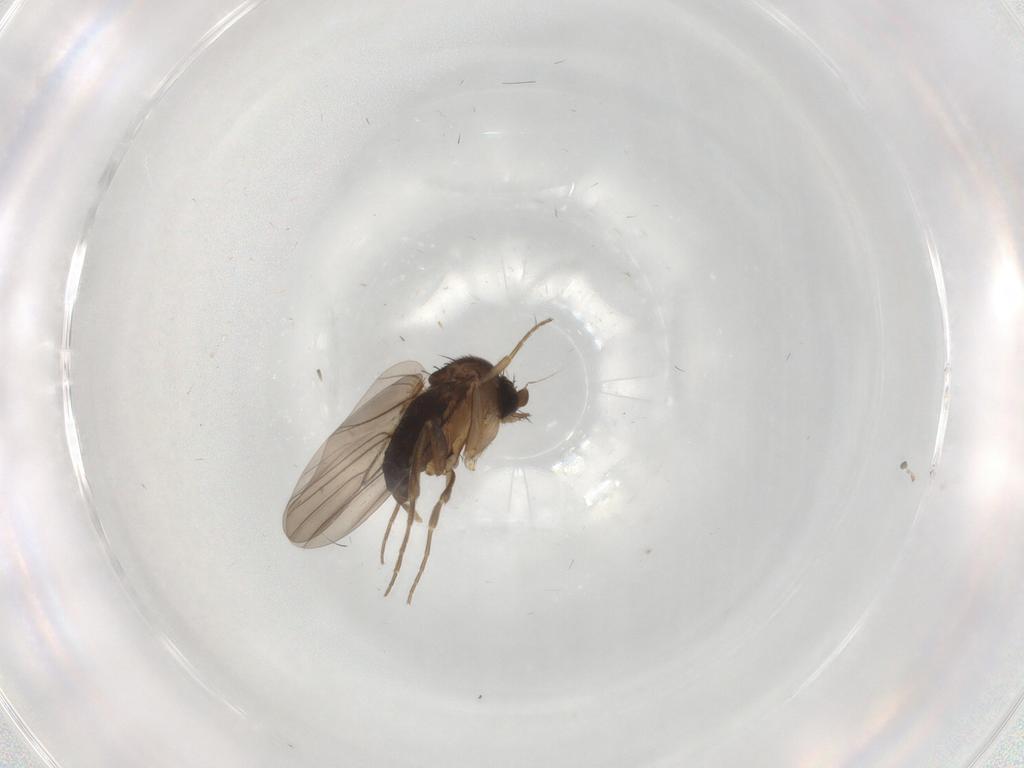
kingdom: Animalia
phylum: Arthropoda
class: Insecta
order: Diptera
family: Phoridae
